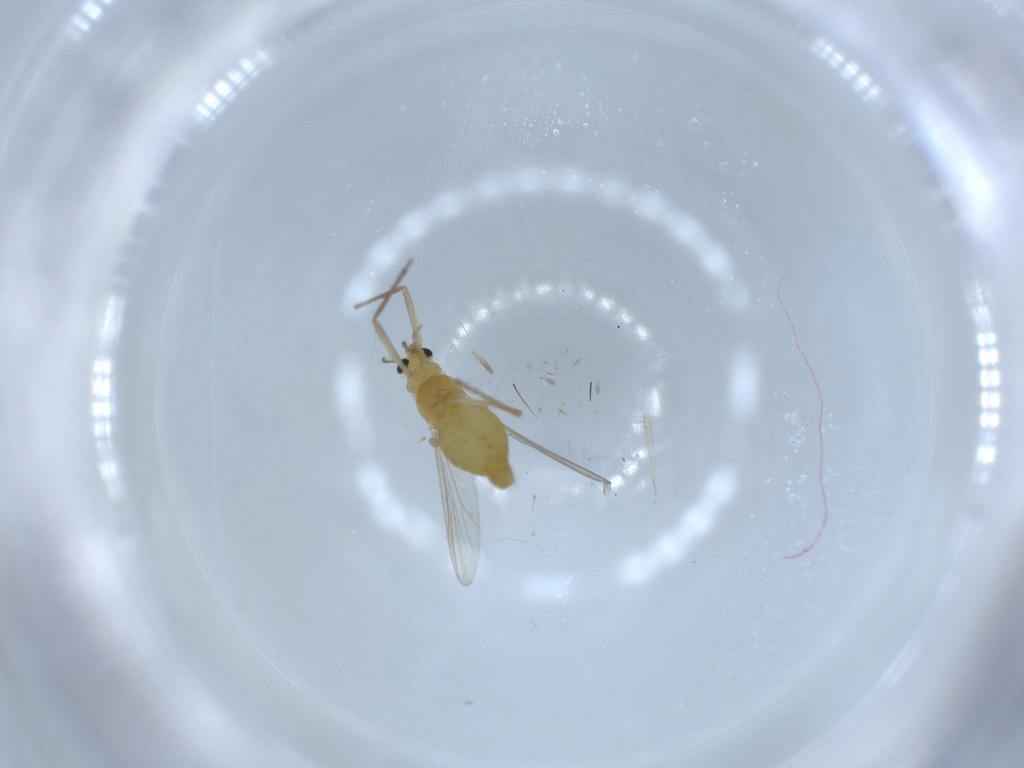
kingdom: Animalia
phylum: Arthropoda
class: Insecta
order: Diptera
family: Chironomidae
